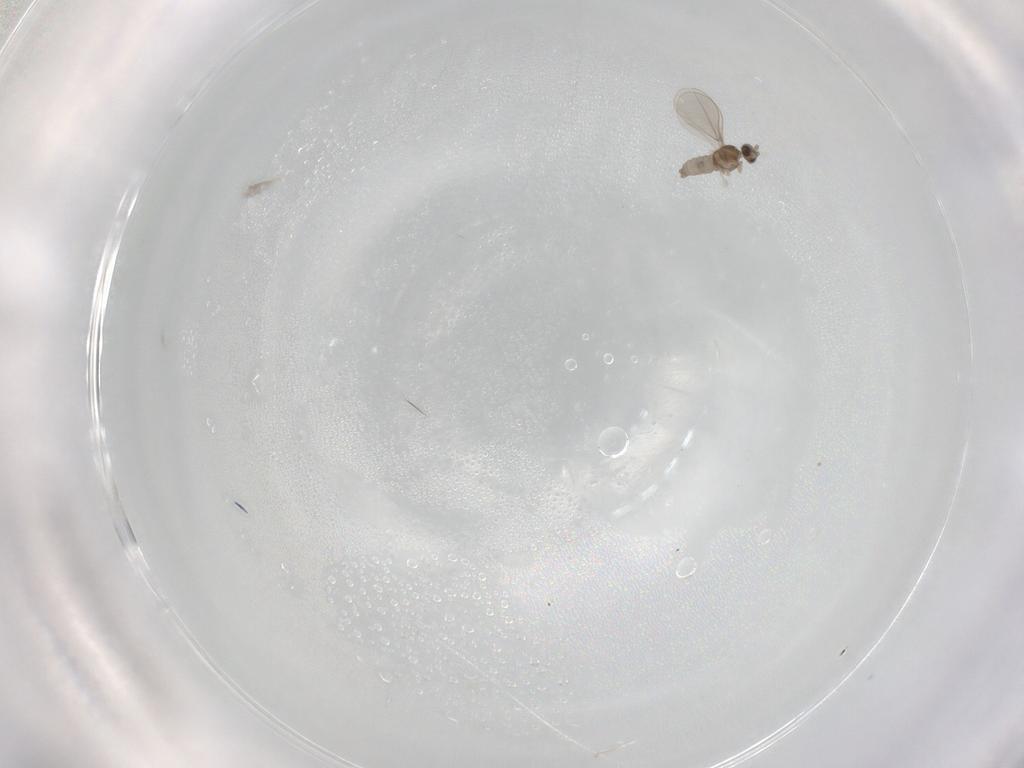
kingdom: Animalia
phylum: Arthropoda
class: Insecta
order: Diptera
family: Cecidomyiidae
